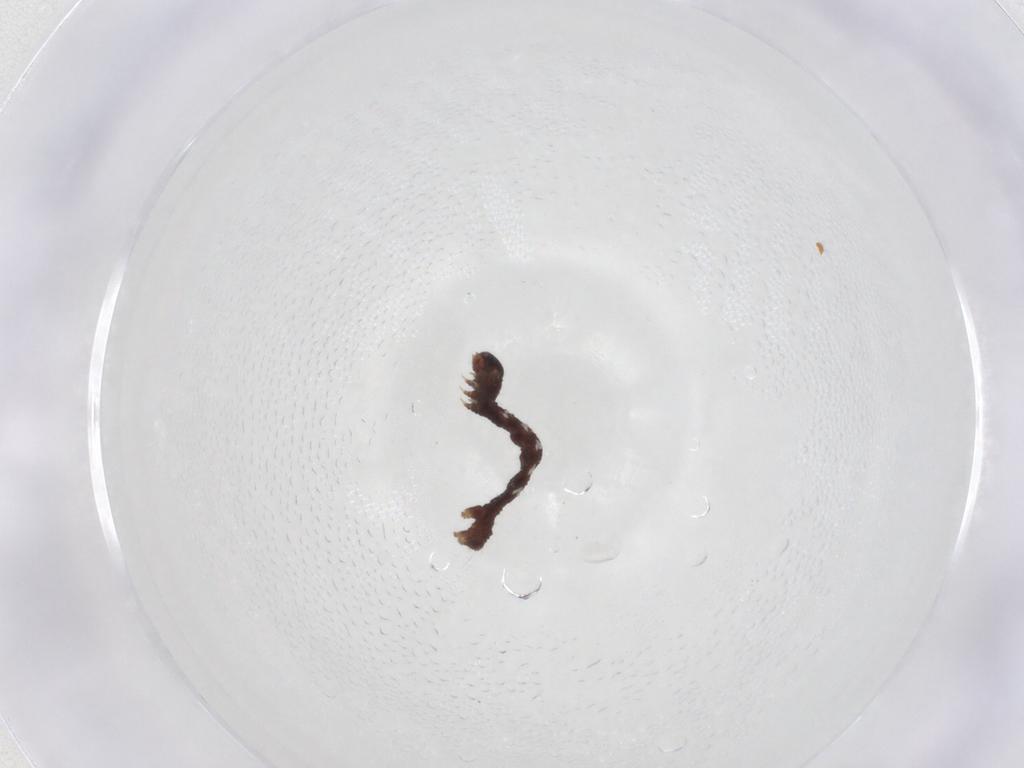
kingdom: Animalia
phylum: Arthropoda
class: Insecta
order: Lepidoptera
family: Geometridae
